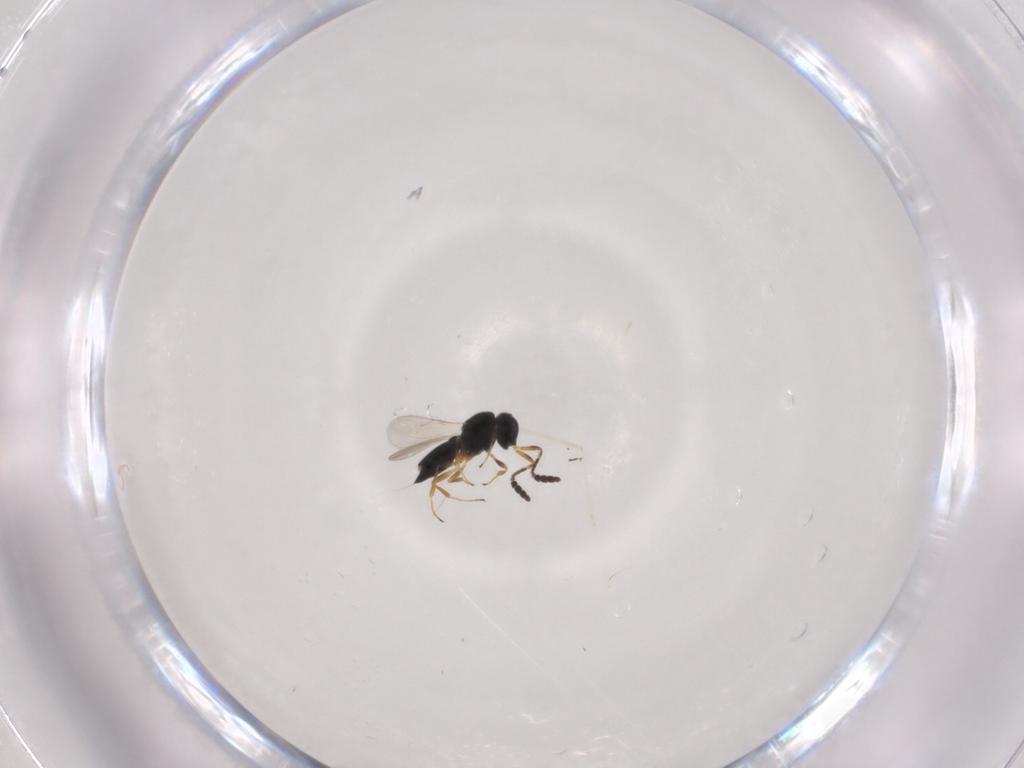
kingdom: Animalia
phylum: Arthropoda
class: Insecta
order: Hymenoptera
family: Scelionidae
